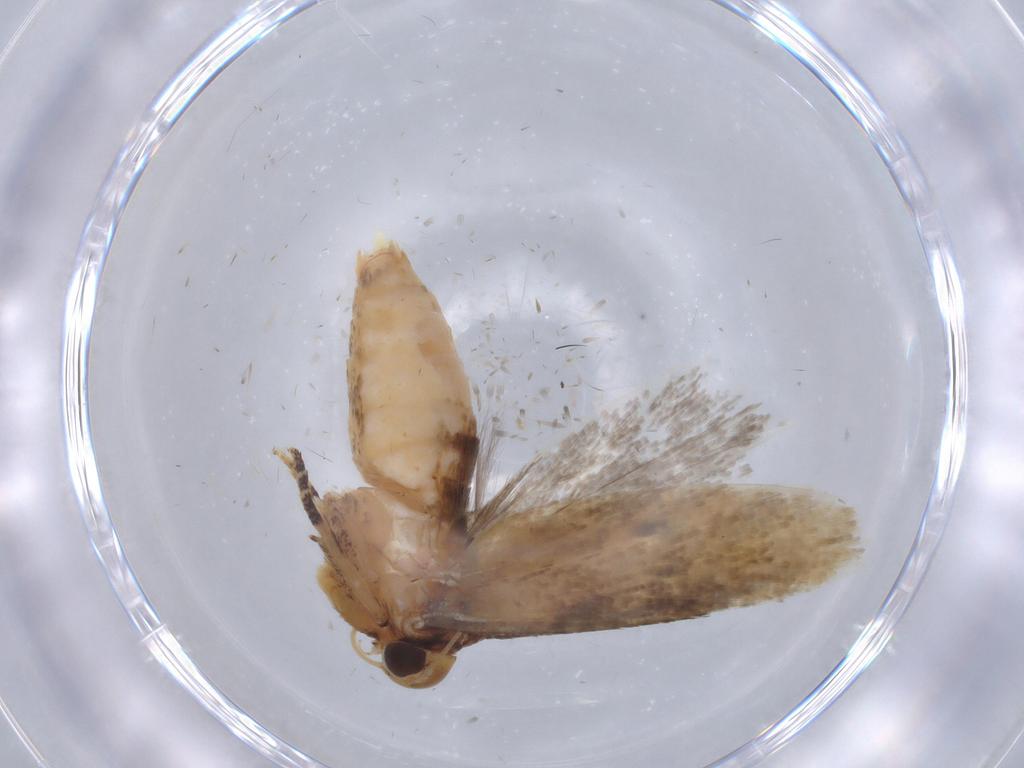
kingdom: Animalia
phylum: Arthropoda
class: Insecta
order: Lepidoptera
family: Gelechiidae
